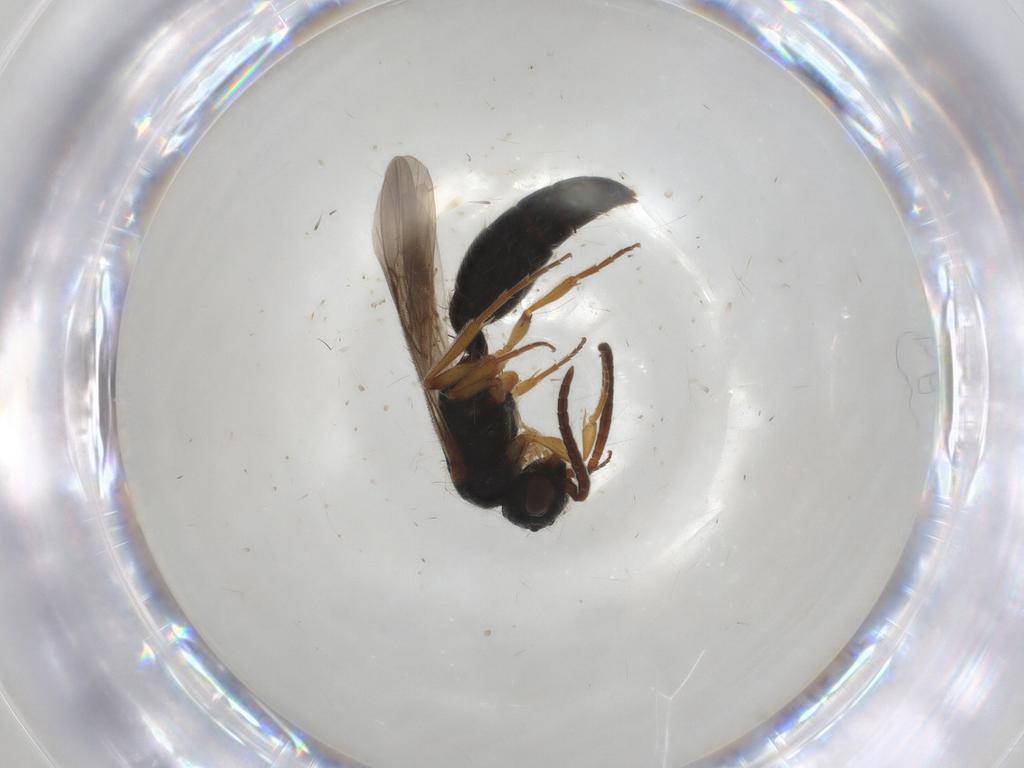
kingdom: Animalia
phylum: Arthropoda
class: Insecta
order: Hymenoptera
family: Mutillidae
